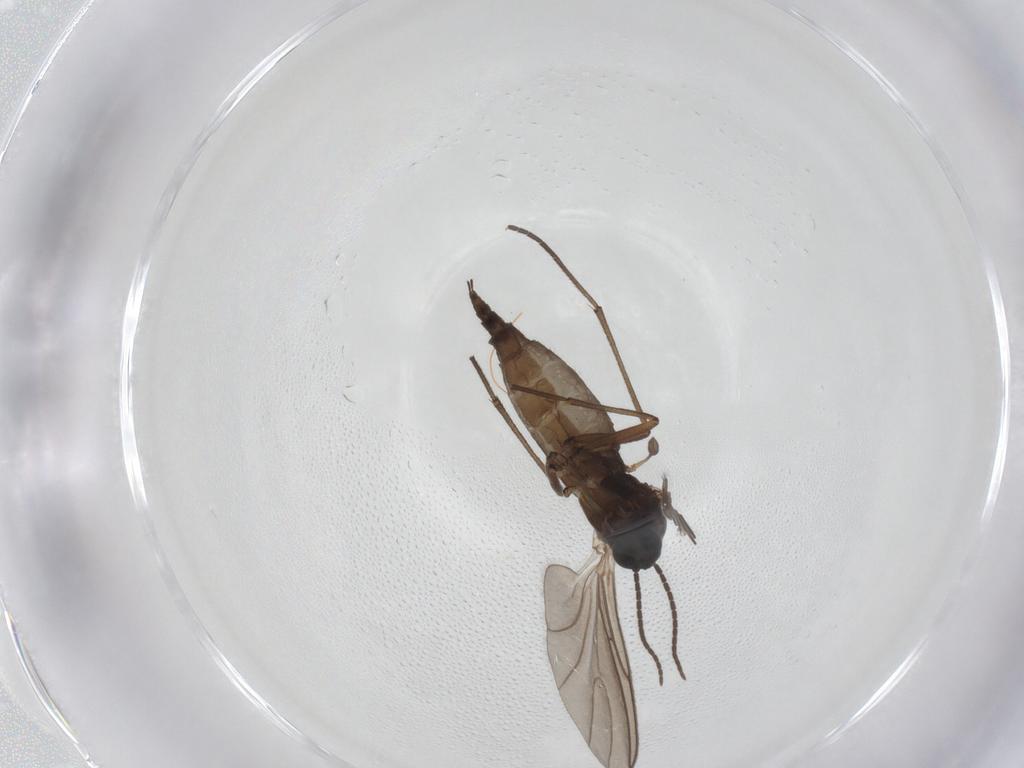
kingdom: Animalia
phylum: Arthropoda
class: Insecta
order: Diptera
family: Sciaridae
